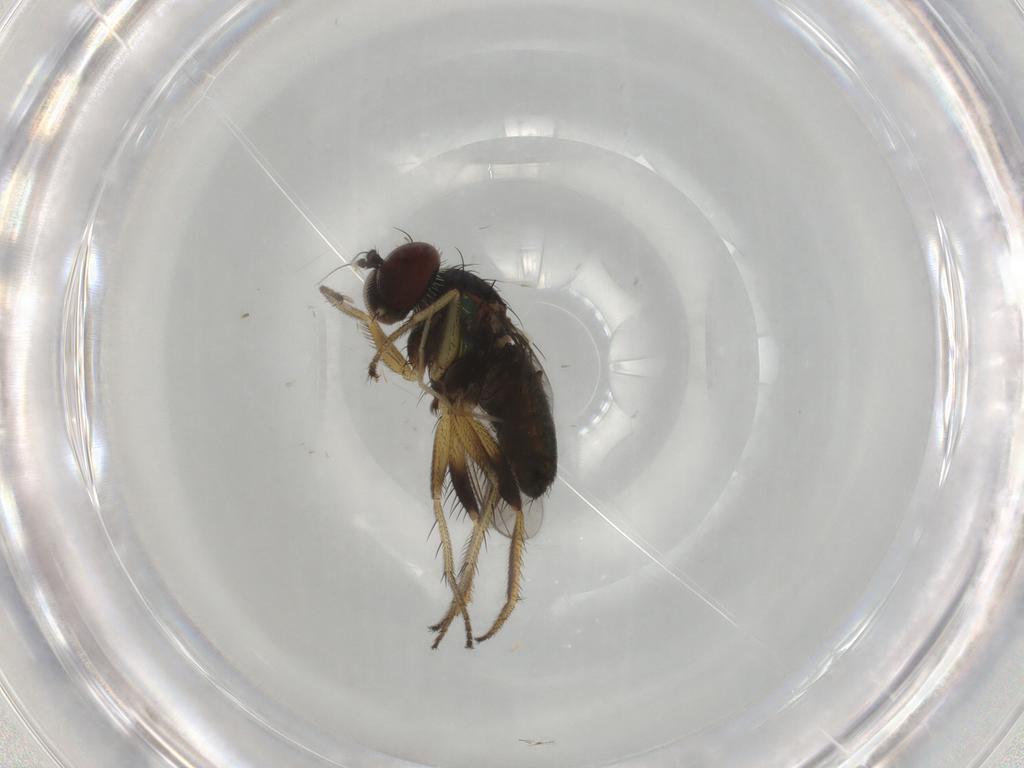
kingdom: Animalia
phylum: Arthropoda
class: Insecta
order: Diptera
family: Dolichopodidae
